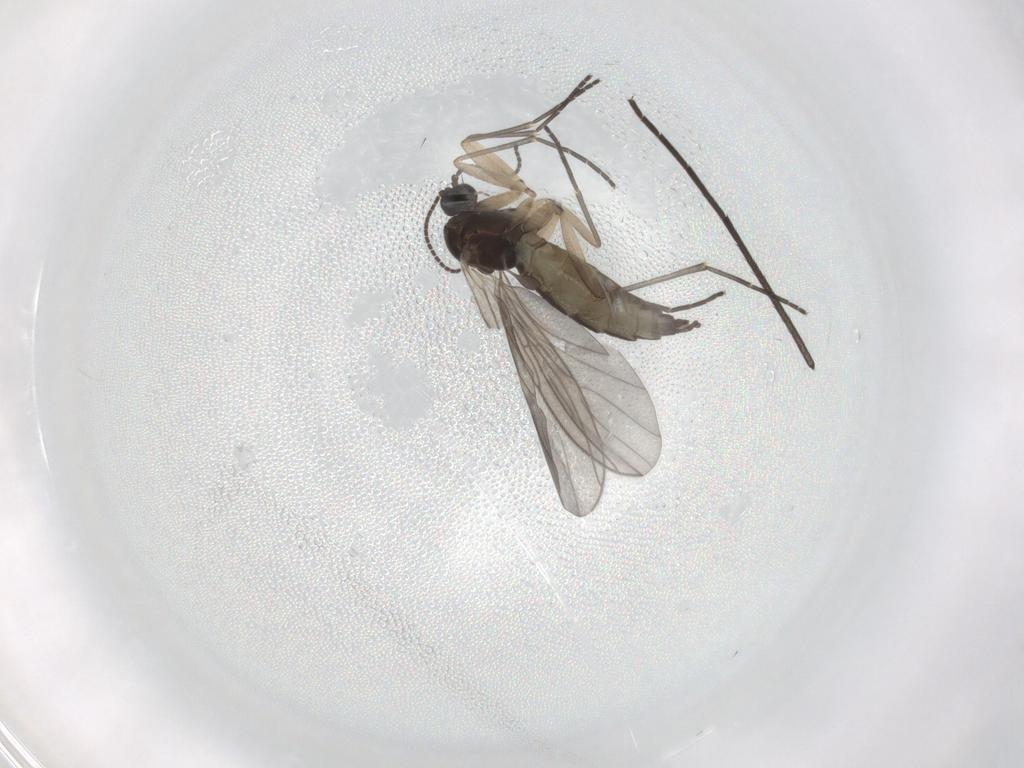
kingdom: Animalia
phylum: Arthropoda
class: Insecta
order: Diptera
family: Sciaridae
